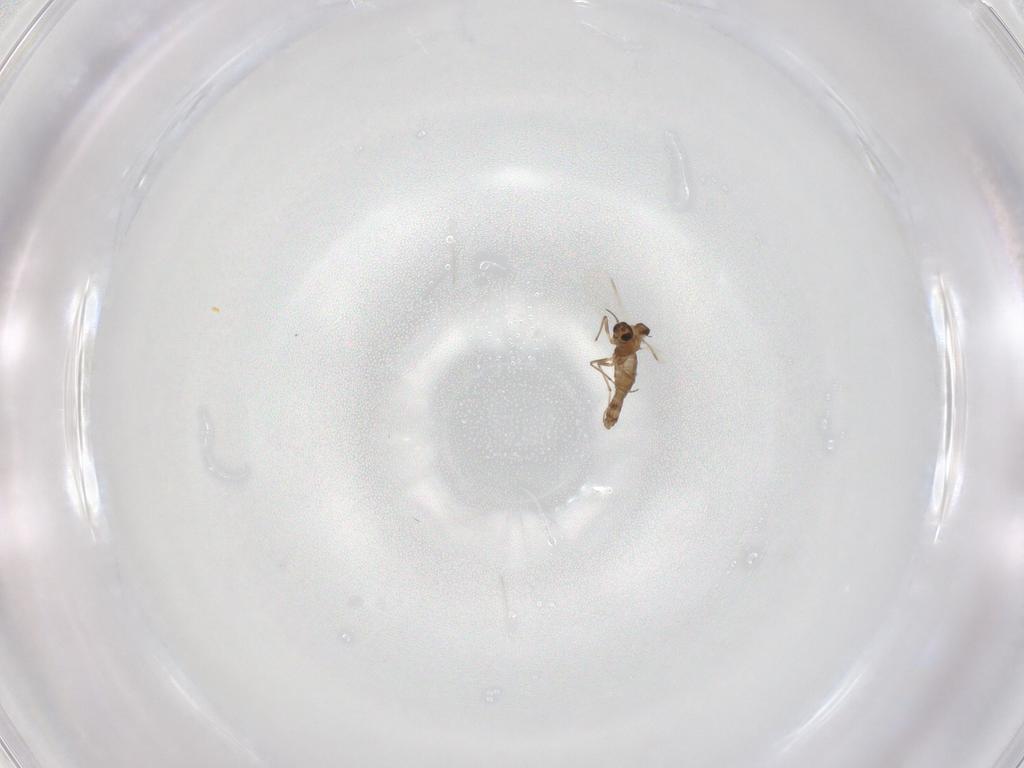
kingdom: Animalia
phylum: Arthropoda
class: Insecta
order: Diptera
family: Chironomidae
